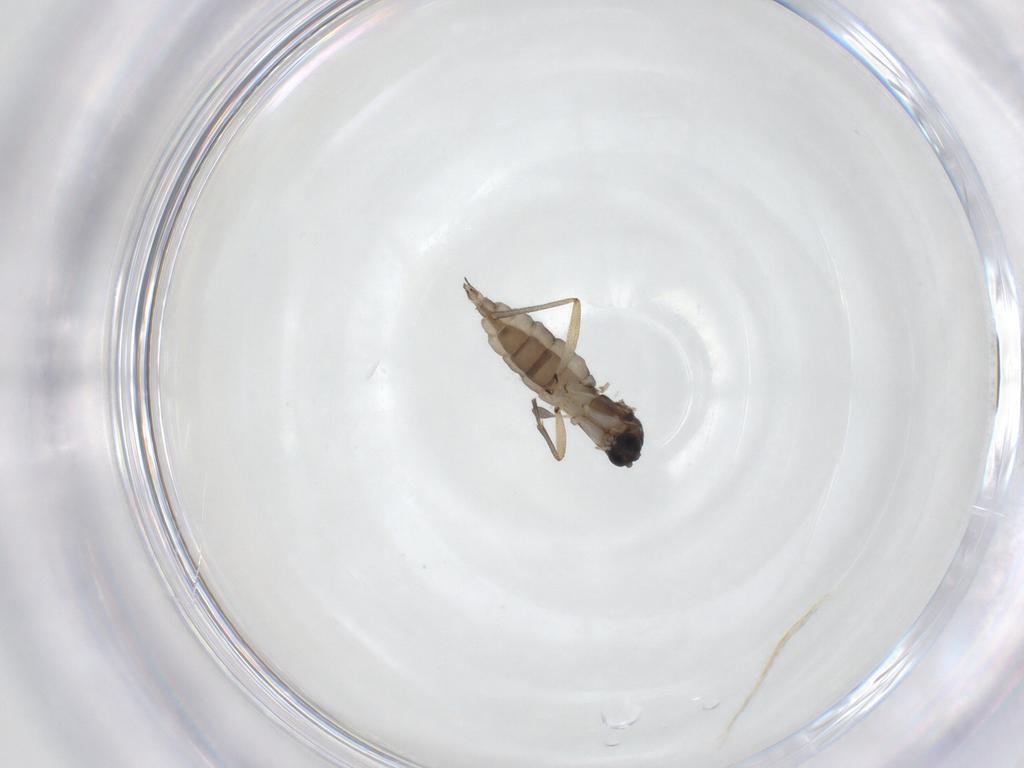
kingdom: Animalia
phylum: Arthropoda
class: Insecta
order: Diptera
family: Sciaridae
